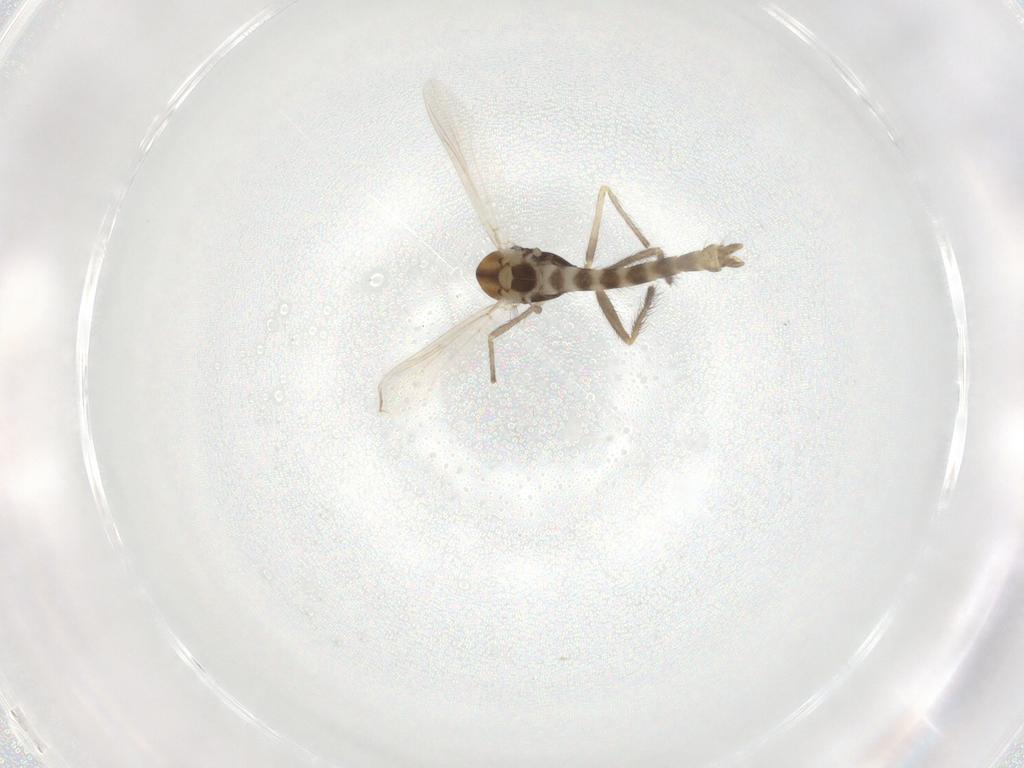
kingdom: Animalia
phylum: Arthropoda
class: Insecta
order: Diptera
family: Chironomidae
